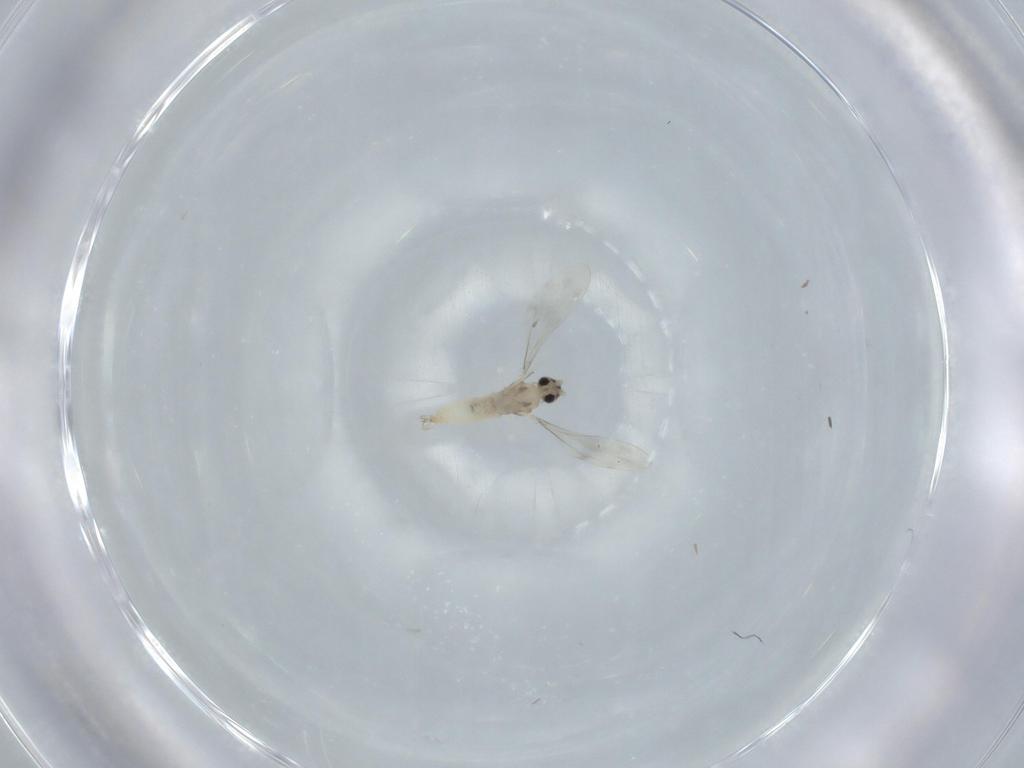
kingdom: Animalia
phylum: Arthropoda
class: Insecta
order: Diptera
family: Cecidomyiidae
